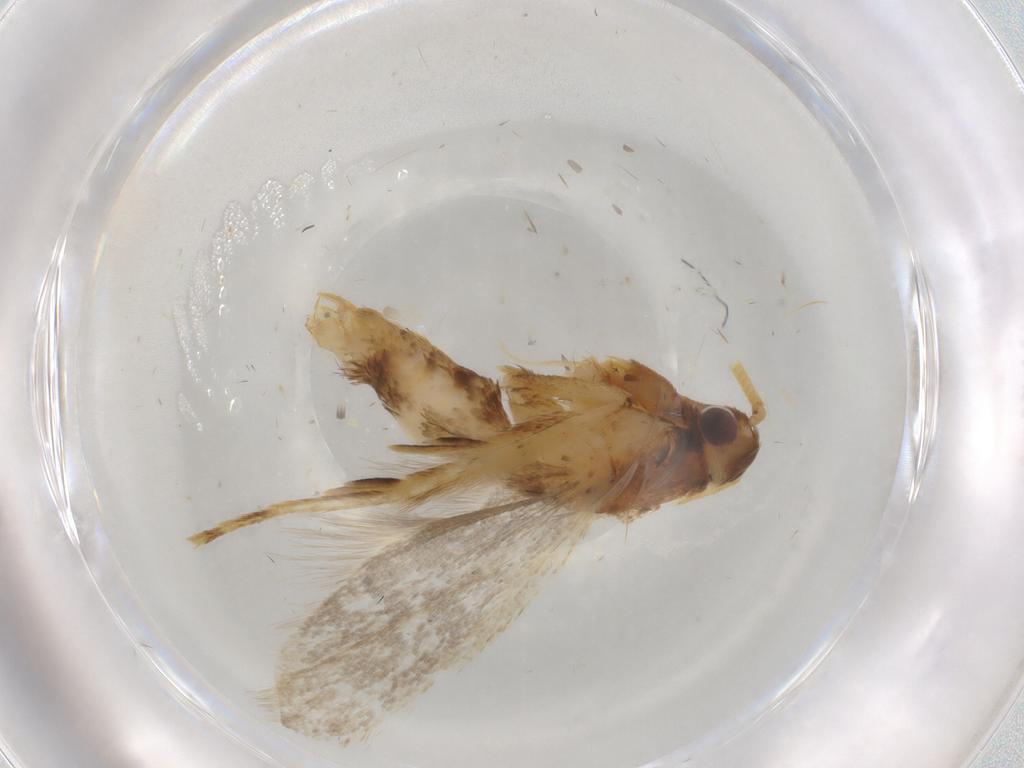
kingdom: Animalia
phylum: Arthropoda
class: Insecta
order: Lepidoptera
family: Lecithoceridae
